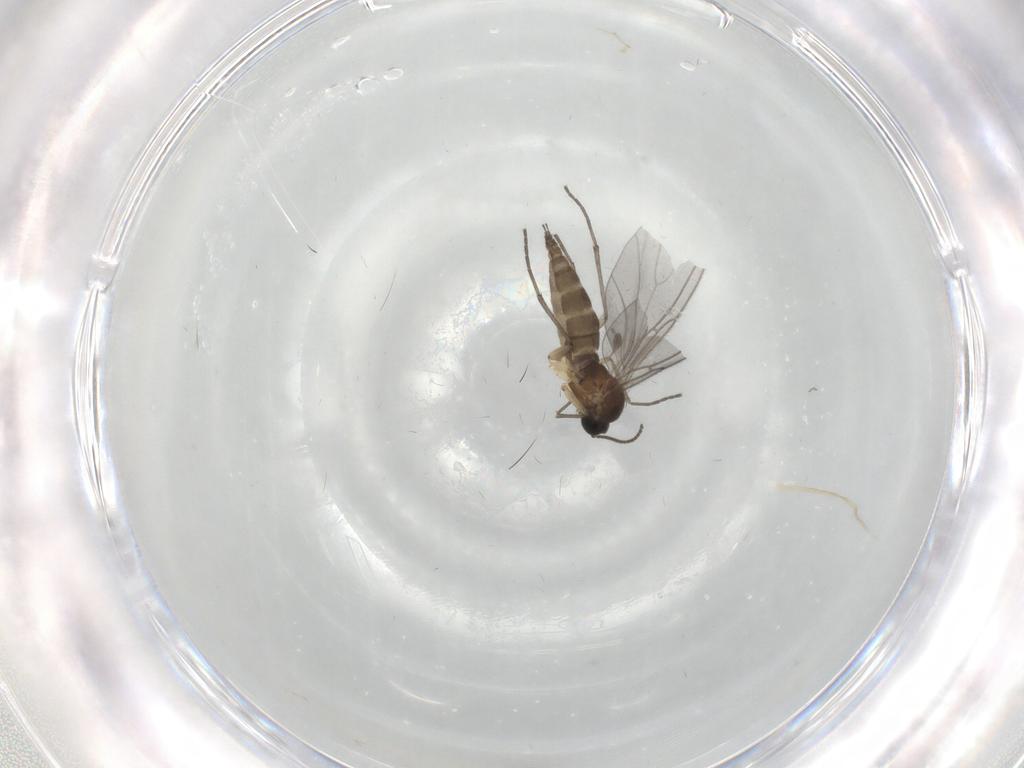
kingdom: Animalia
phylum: Arthropoda
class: Insecta
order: Diptera
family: Sciaridae
